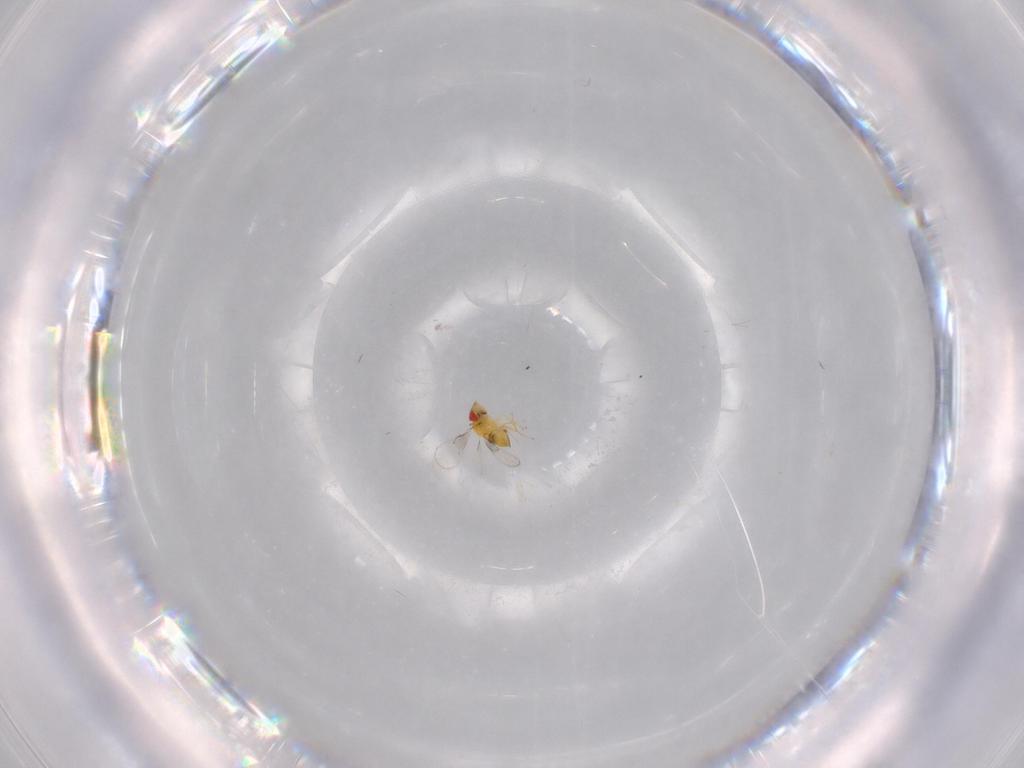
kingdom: Animalia
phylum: Arthropoda
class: Insecta
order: Hymenoptera
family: Trichogrammatidae
